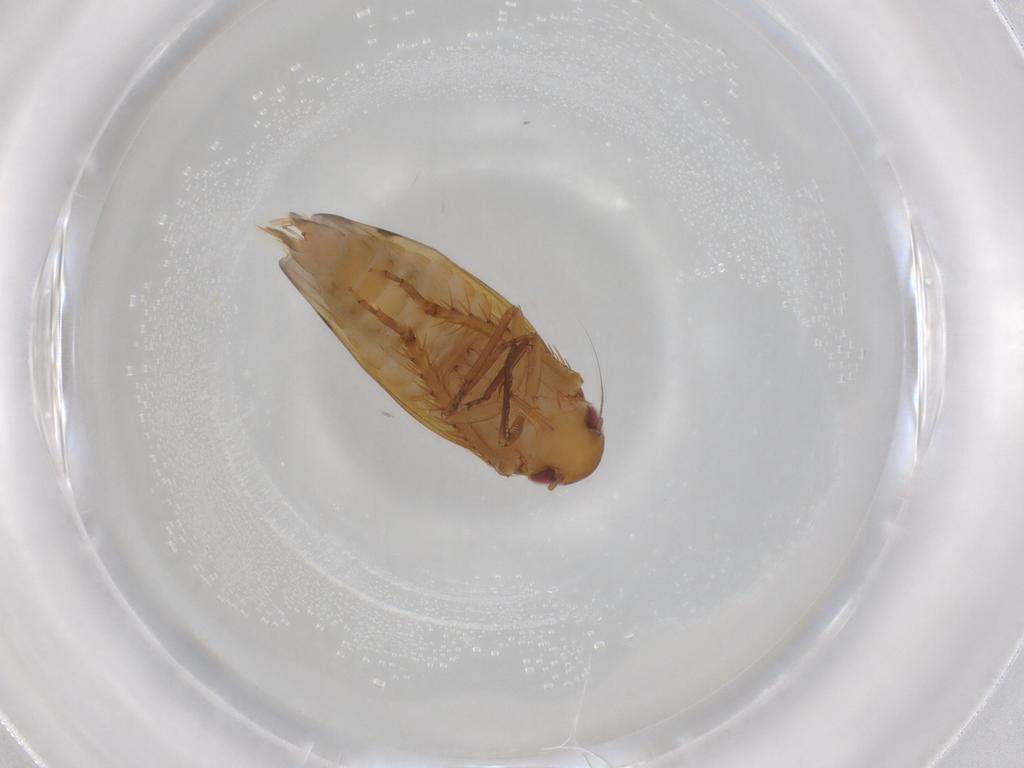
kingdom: Animalia
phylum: Arthropoda
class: Insecta
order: Hemiptera
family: Cicadellidae
